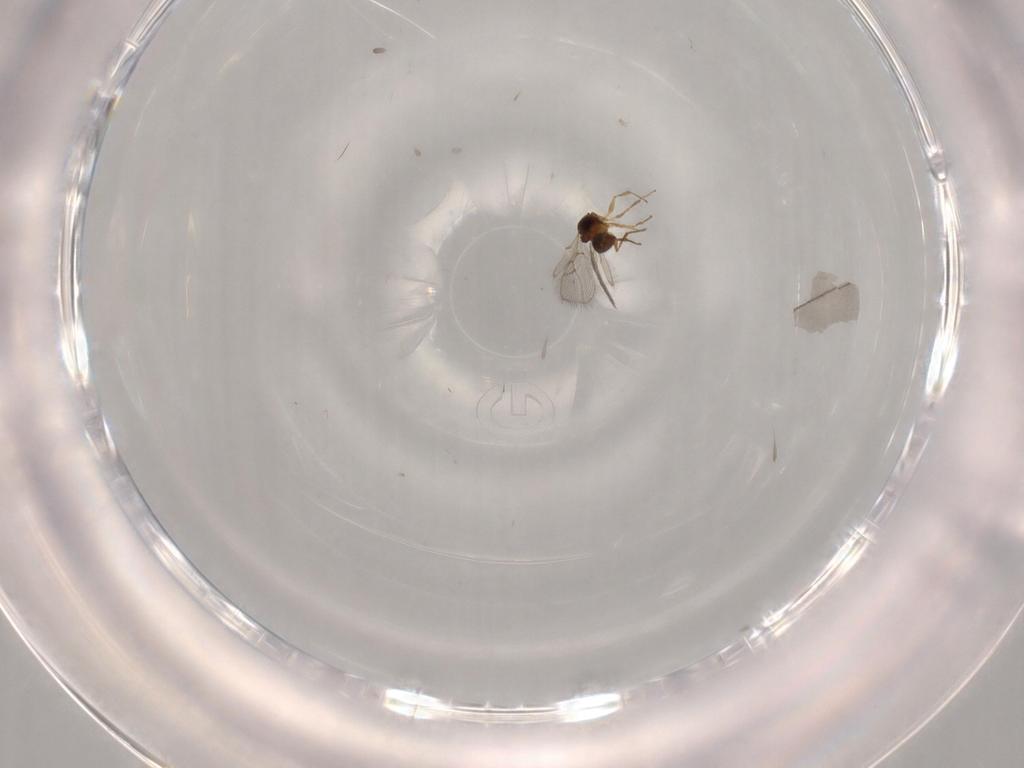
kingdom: Animalia
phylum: Arthropoda
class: Insecta
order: Hymenoptera
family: Figitidae
